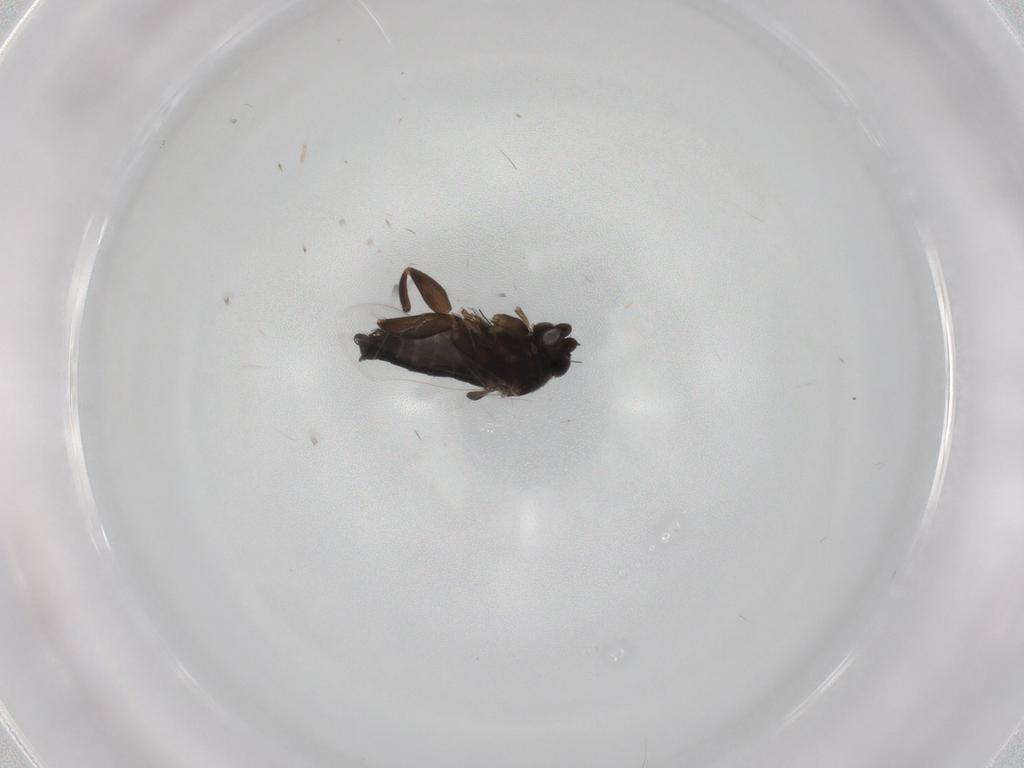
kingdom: Animalia
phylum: Arthropoda
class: Insecta
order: Diptera
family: Phoridae
